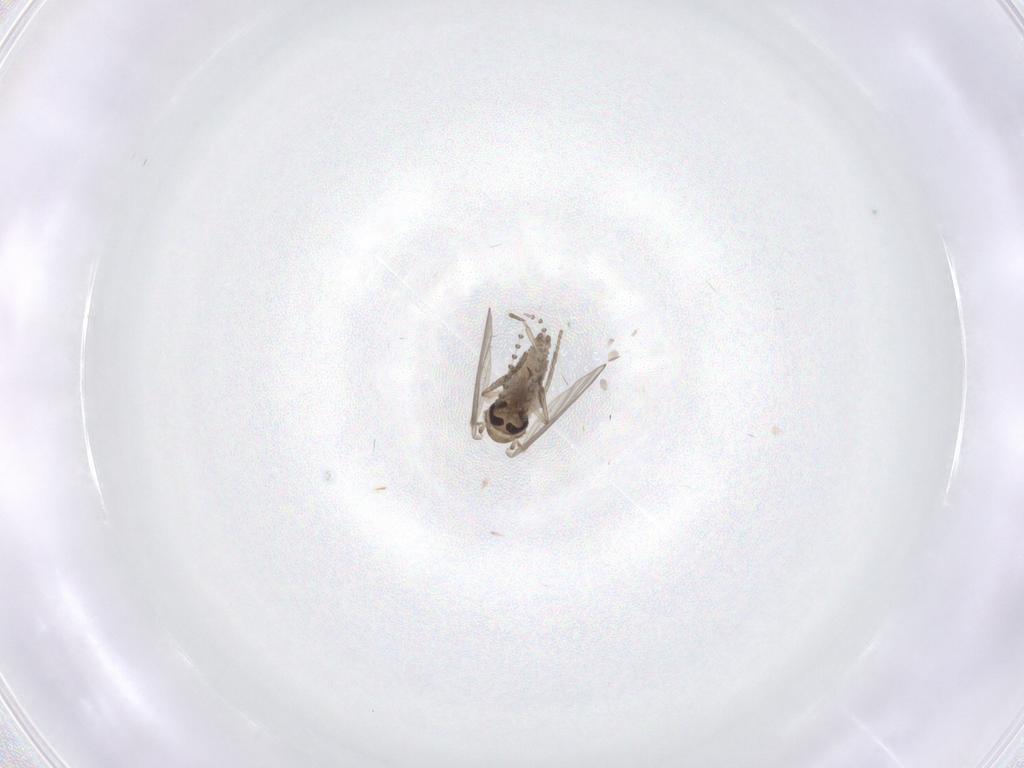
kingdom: Animalia
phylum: Arthropoda
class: Insecta
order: Diptera
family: Psychodidae
